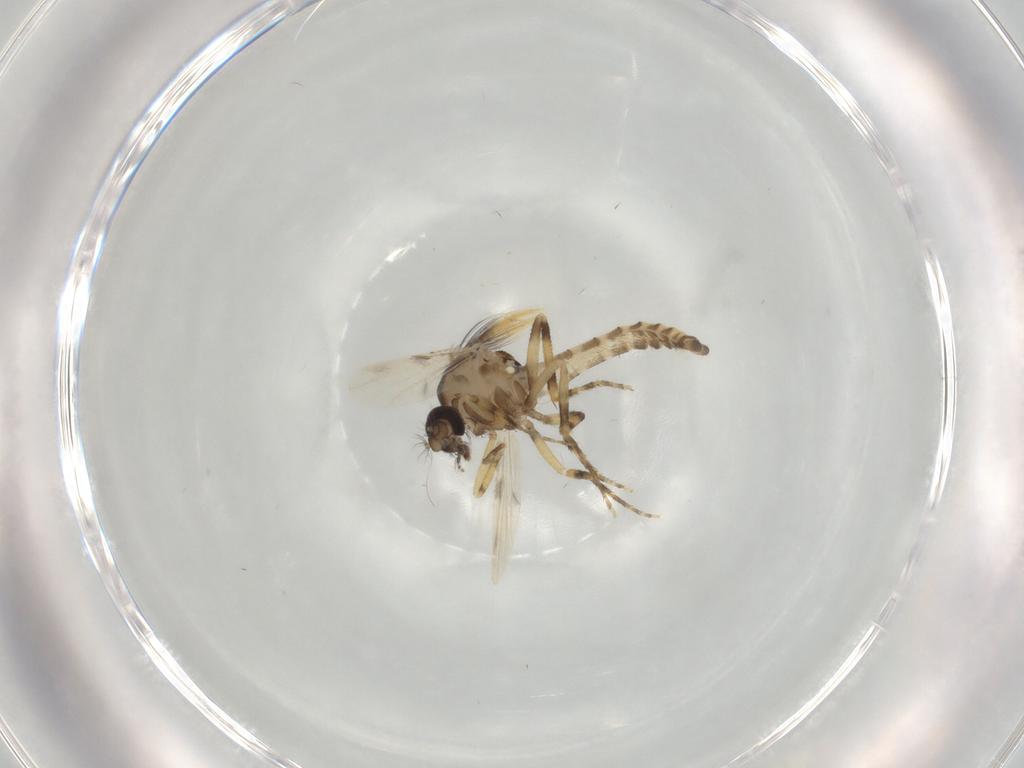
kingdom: Animalia
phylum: Arthropoda
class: Insecta
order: Diptera
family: Ceratopogonidae
